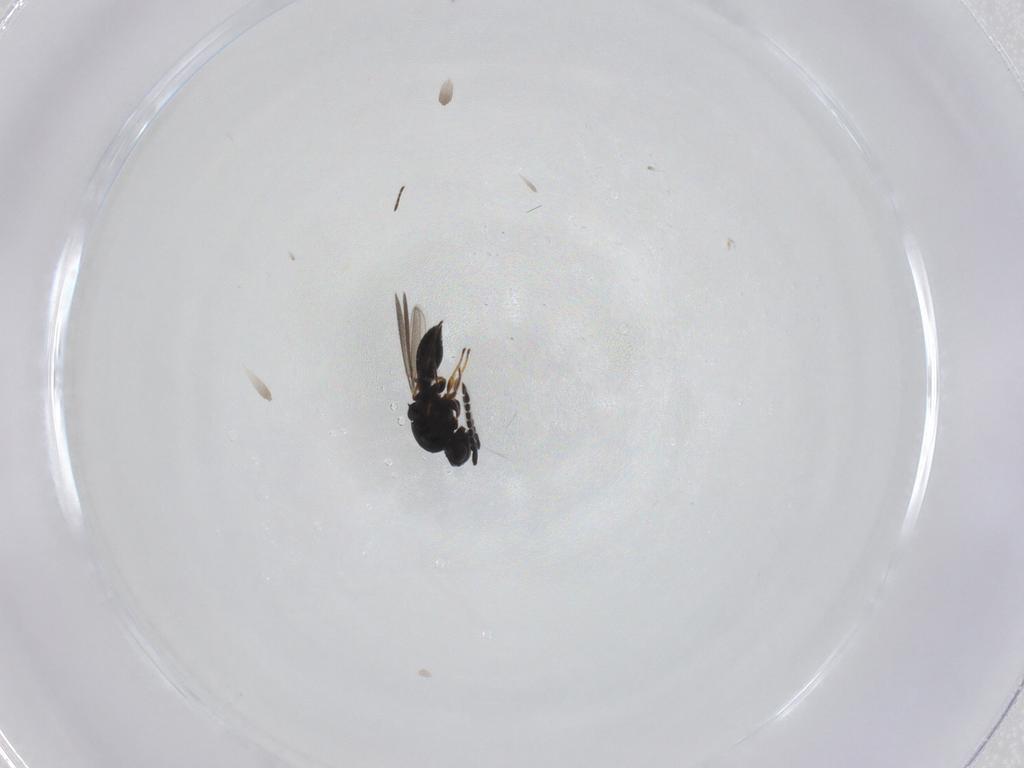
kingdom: Animalia
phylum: Arthropoda
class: Insecta
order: Hymenoptera
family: Platygastridae
